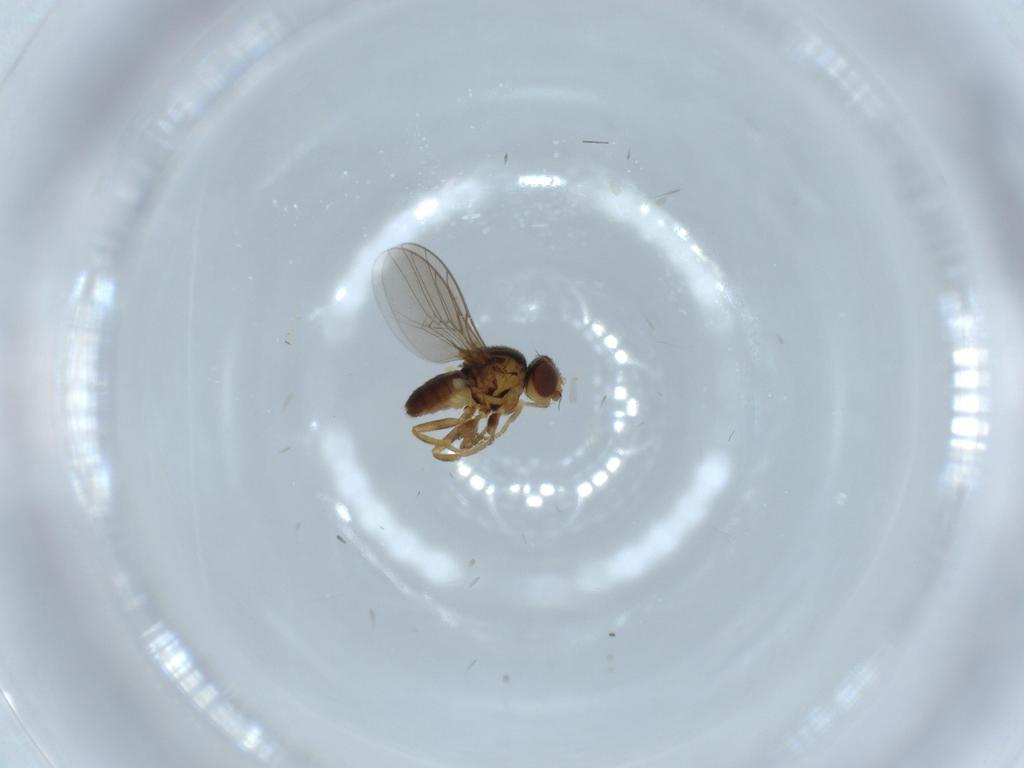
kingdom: Animalia
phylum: Arthropoda
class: Insecta
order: Diptera
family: Chloropidae
